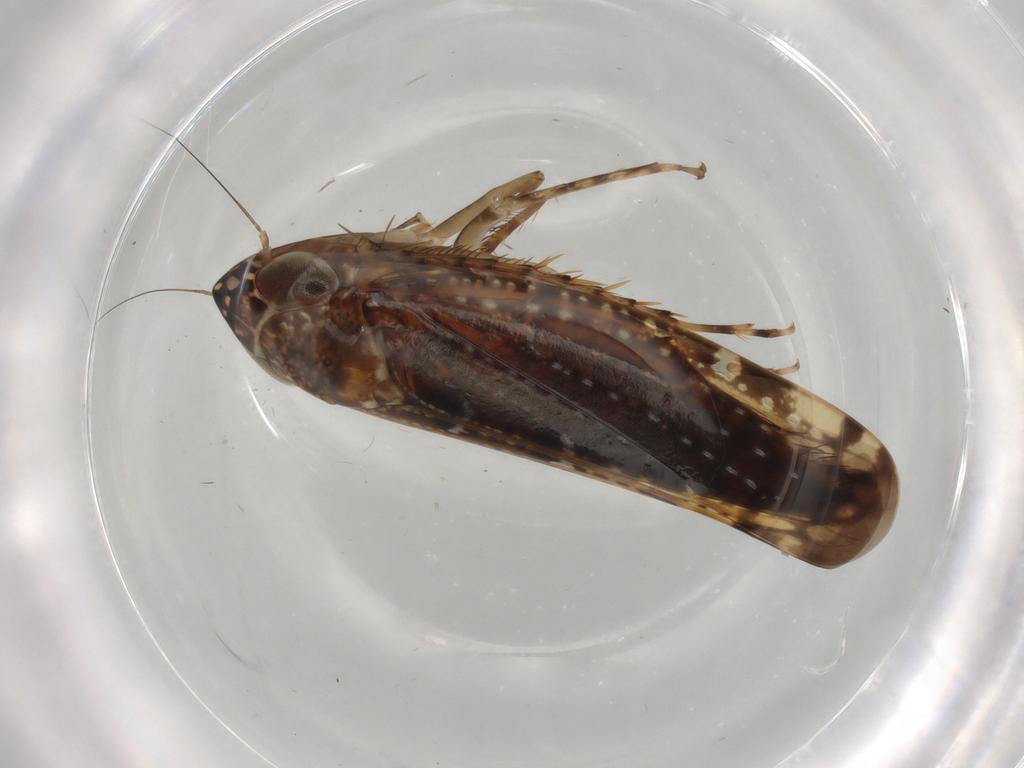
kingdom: Animalia
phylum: Arthropoda
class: Insecta
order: Hemiptera
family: Cicadellidae
